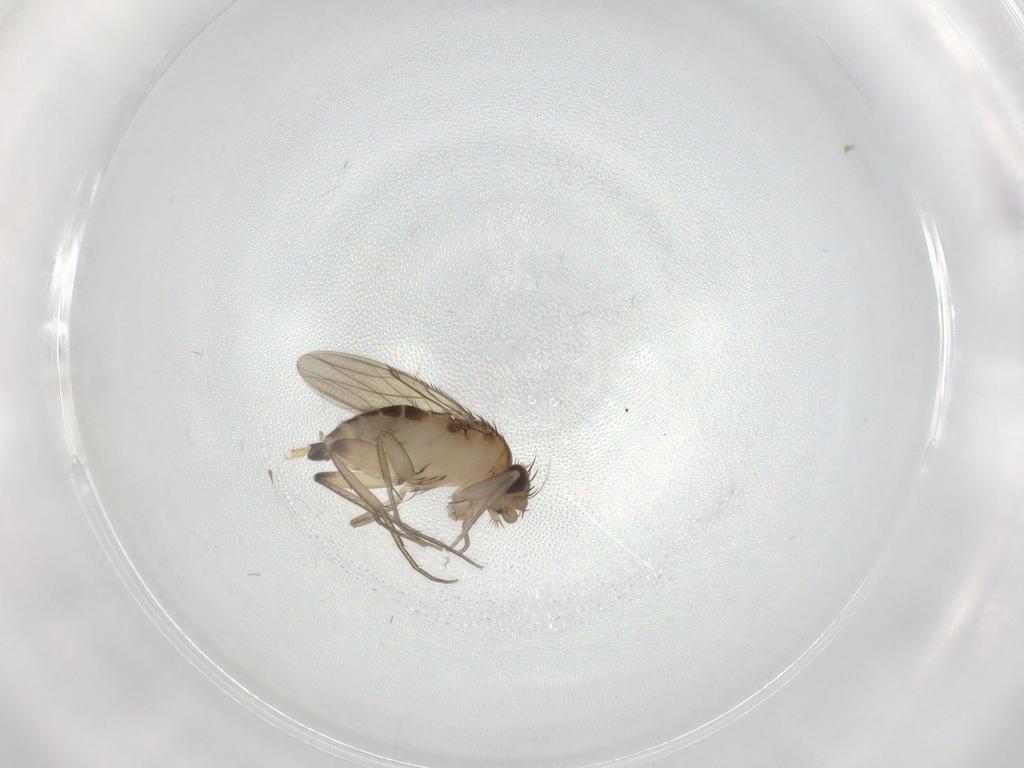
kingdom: Animalia
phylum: Arthropoda
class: Insecta
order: Diptera
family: Phoridae
